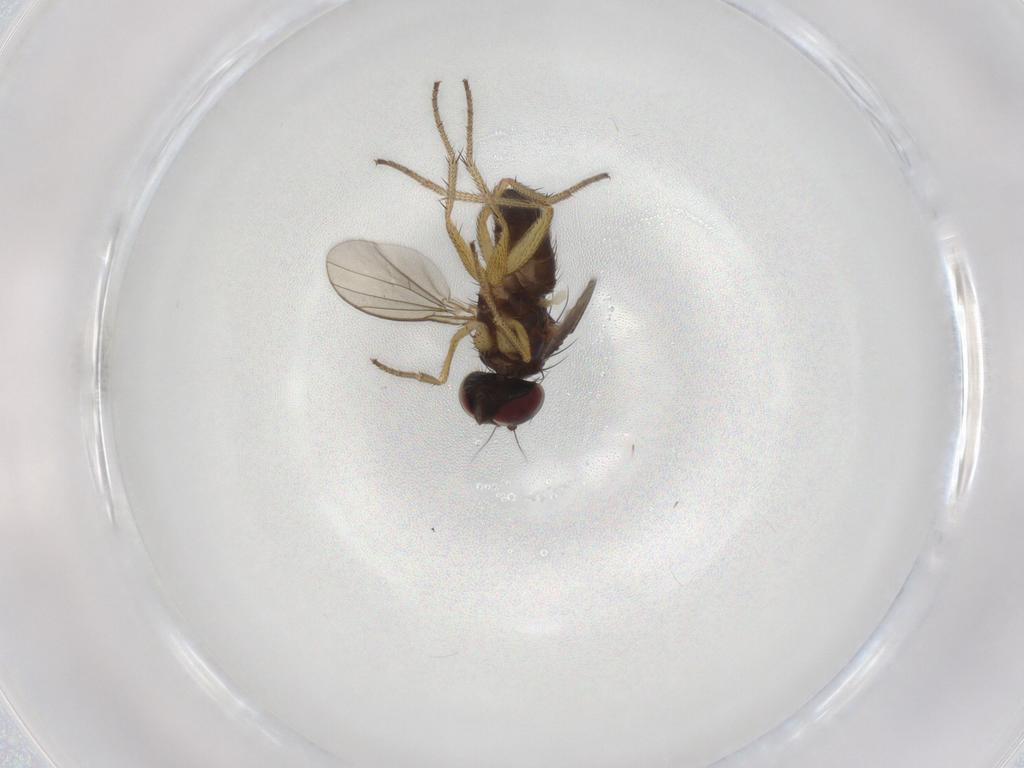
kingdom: Animalia
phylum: Arthropoda
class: Insecta
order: Diptera
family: Dolichopodidae
